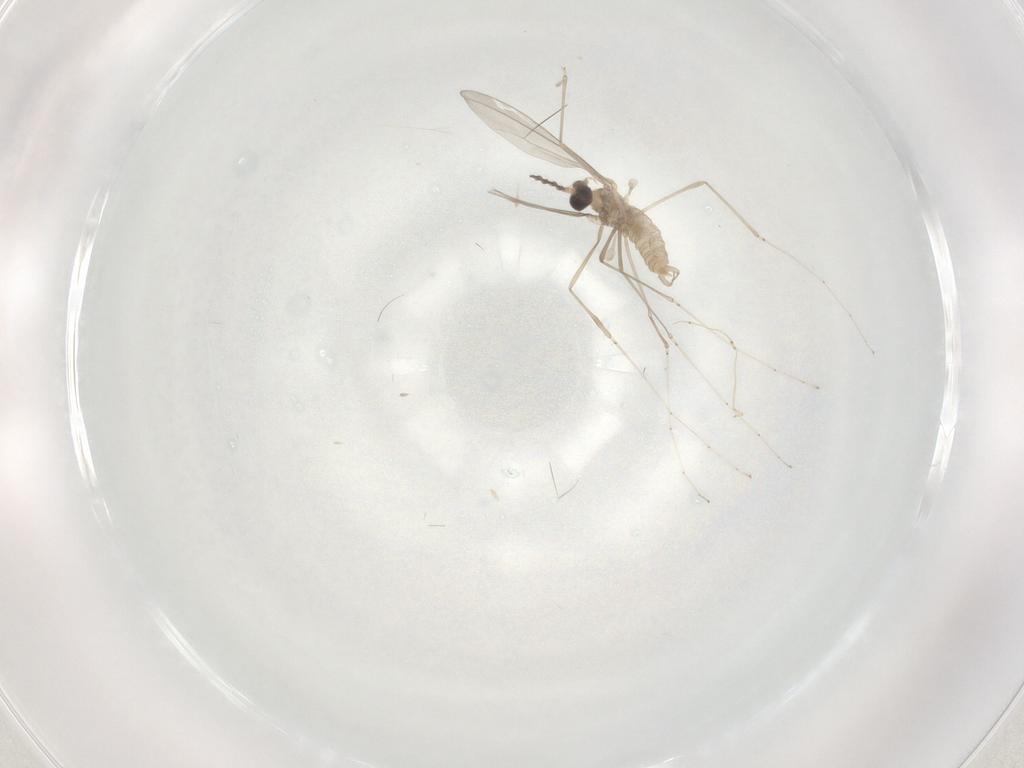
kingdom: Animalia
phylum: Arthropoda
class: Insecta
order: Diptera
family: Cecidomyiidae
